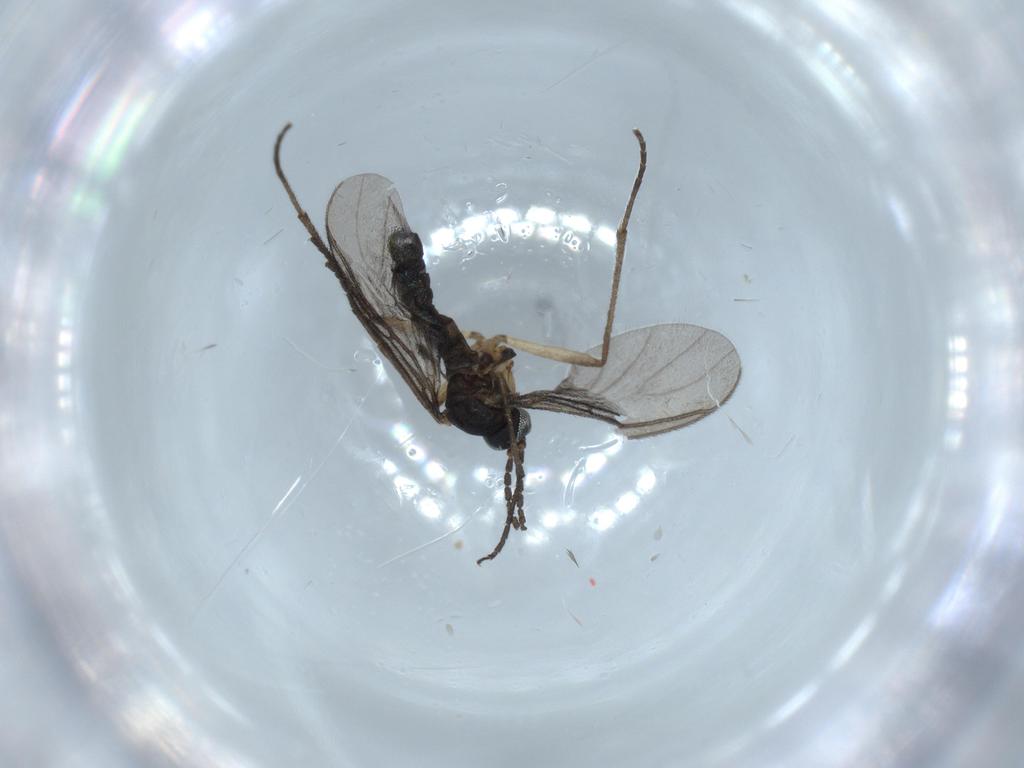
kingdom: Animalia
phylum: Arthropoda
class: Insecta
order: Diptera
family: Sciaridae
